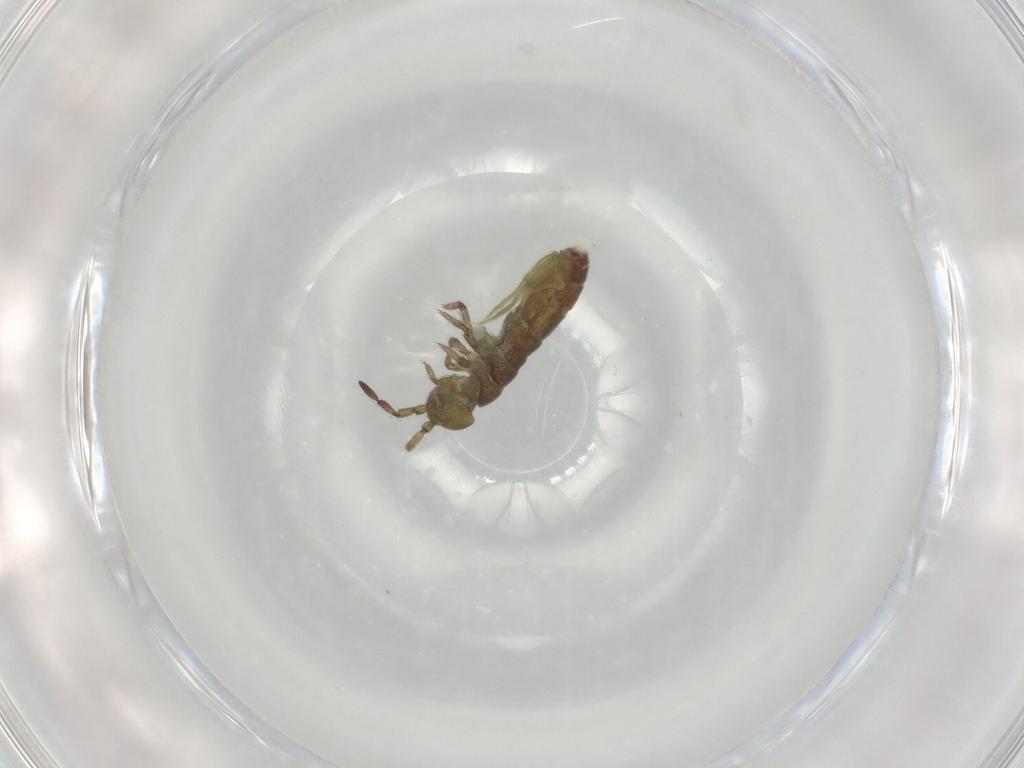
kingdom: Animalia
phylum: Arthropoda
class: Collembola
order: Entomobryomorpha
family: Isotomidae
